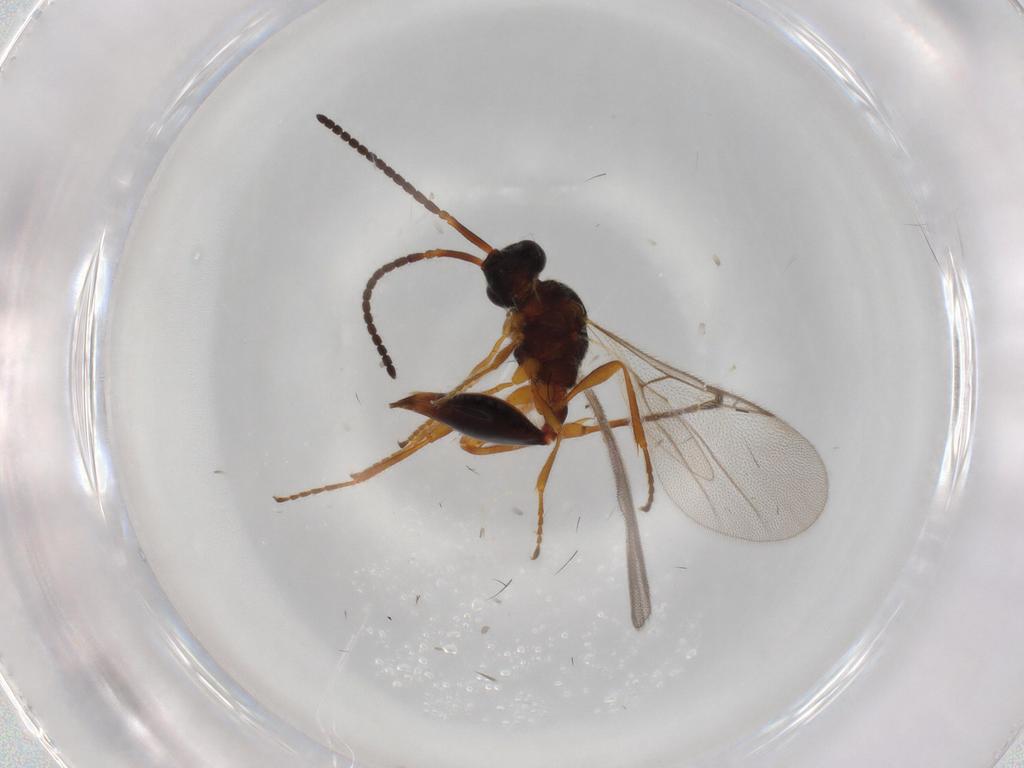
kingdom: Animalia
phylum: Arthropoda
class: Insecta
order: Hymenoptera
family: Braconidae
